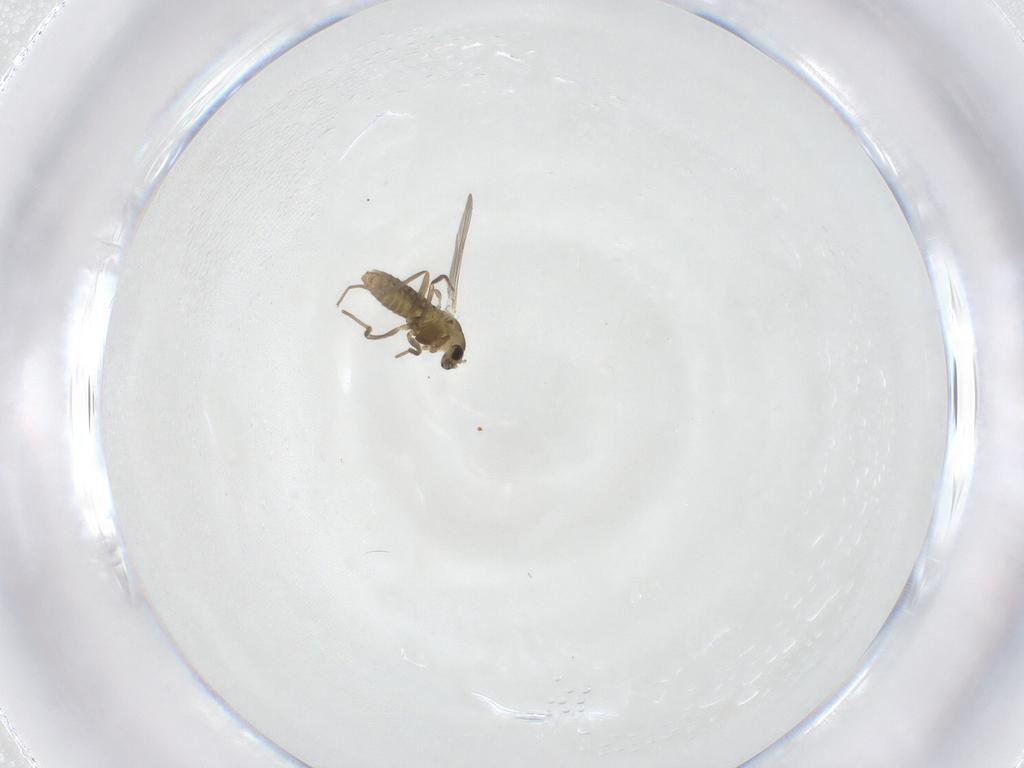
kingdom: Animalia
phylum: Arthropoda
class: Insecta
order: Diptera
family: Chironomidae
